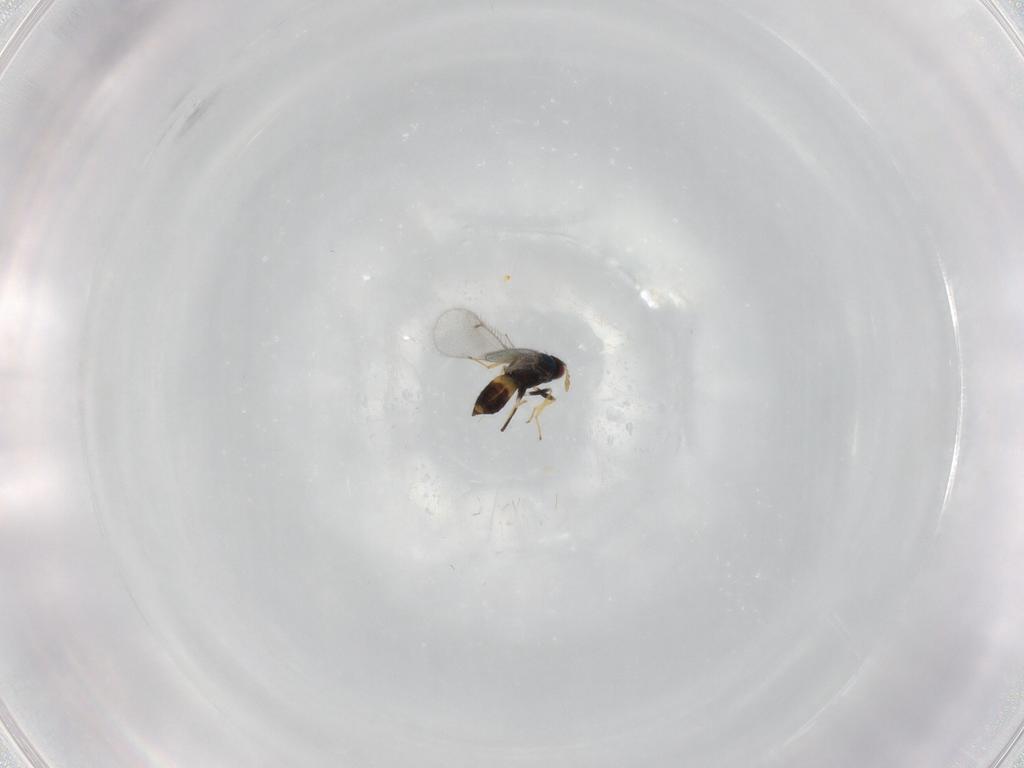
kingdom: Animalia
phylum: Arthropoda
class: Insecta
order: Hymenoptera
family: Eulophidae
